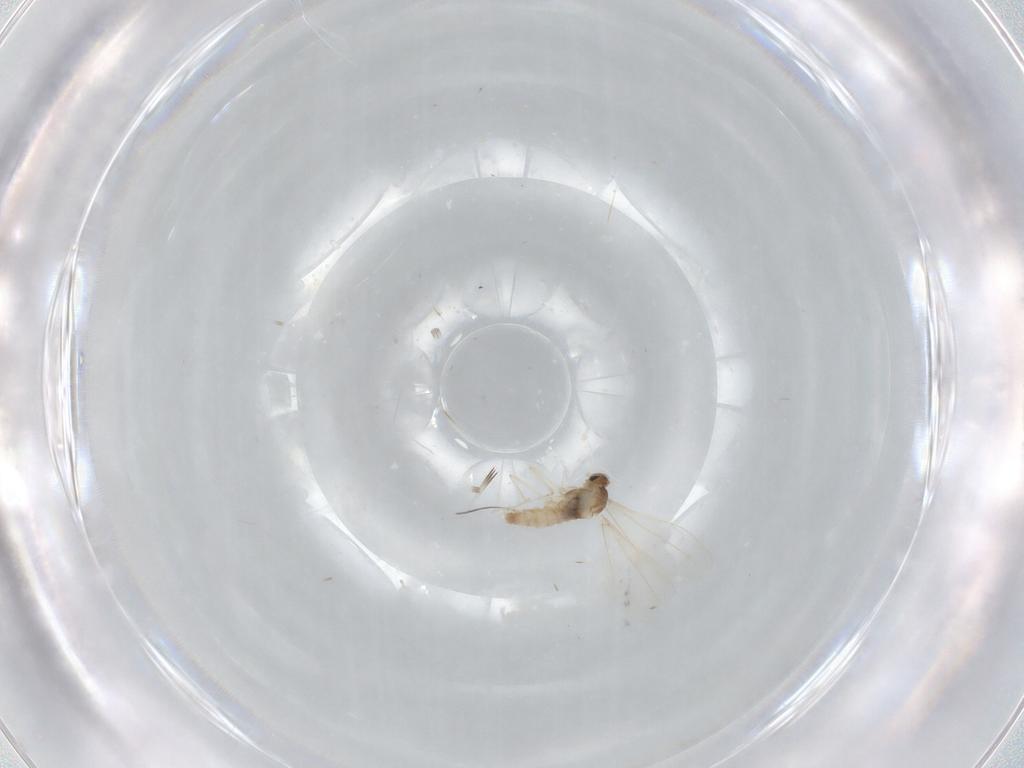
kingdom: Animalia
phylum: Arthropoda
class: Insecta
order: Diptera
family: Cecidomyiidae
